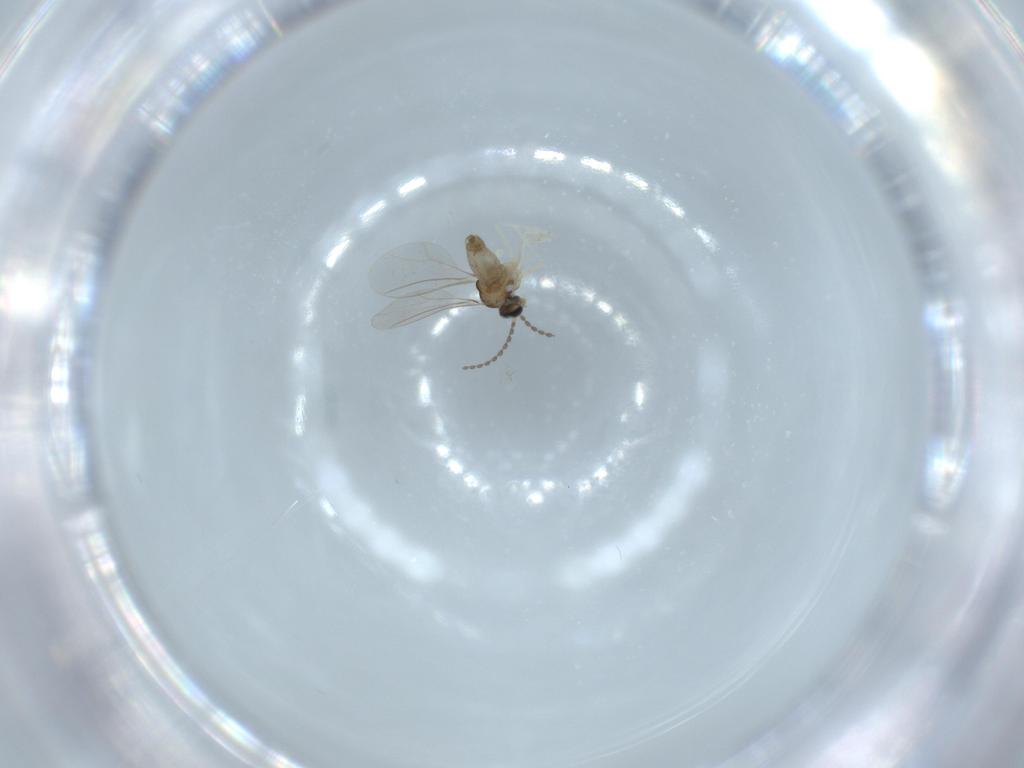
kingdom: Animalia
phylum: Arthropoda
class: Insecta
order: Diptera
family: Cecidomyiidae
